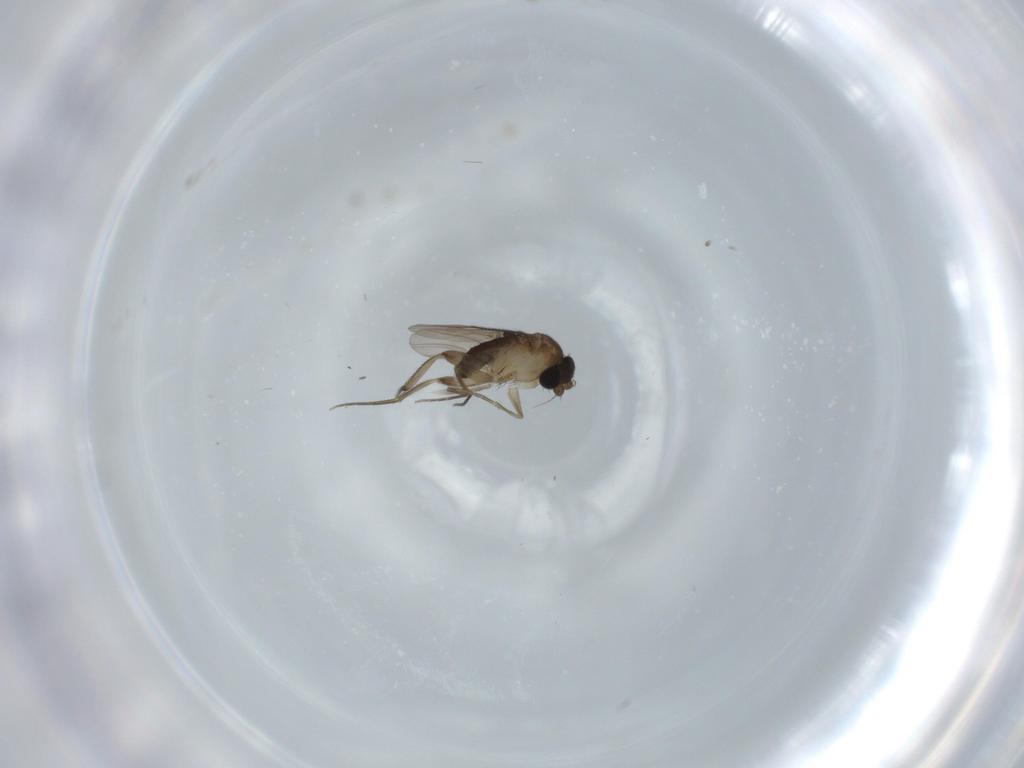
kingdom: Animalia
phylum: Arthropoda
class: Insecta
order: Diptera
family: Phoridae
